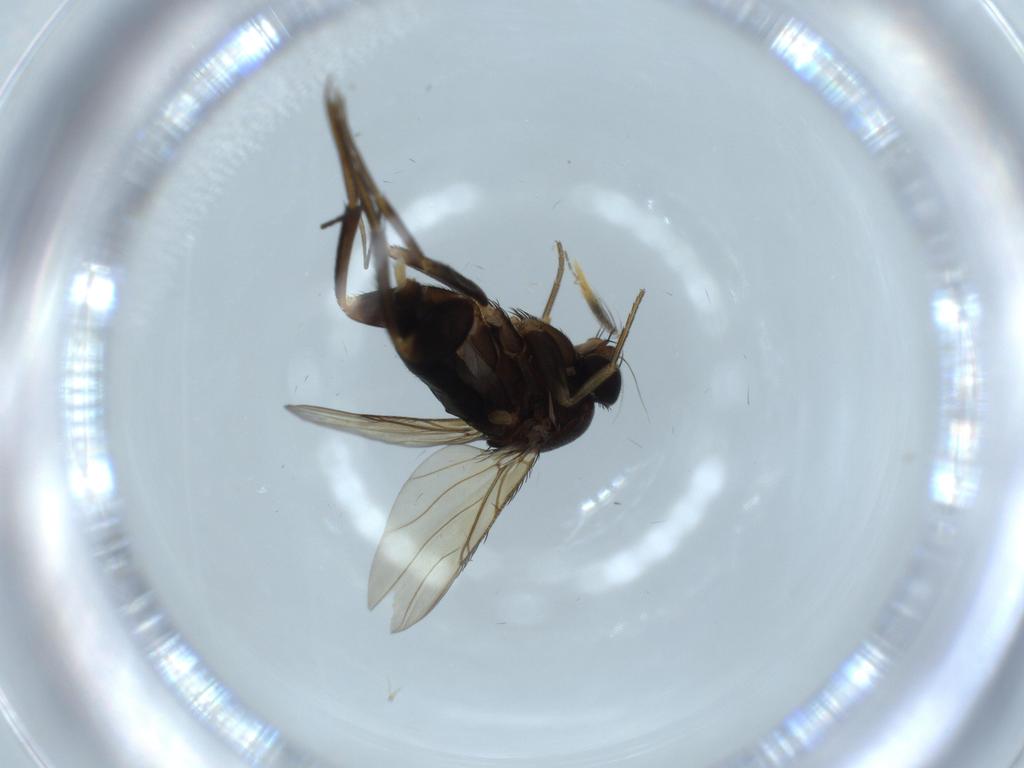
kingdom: Animalia
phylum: Arthropoda
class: Insecta
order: Diptera
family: Phoridae
